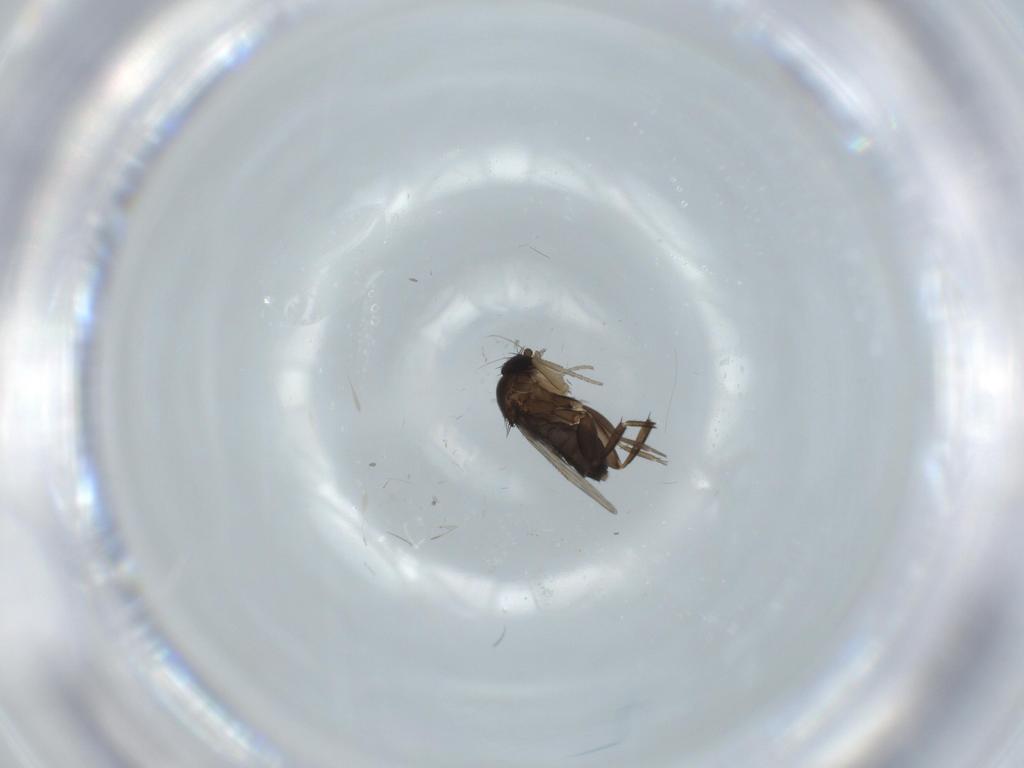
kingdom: Animalia
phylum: Arthropoda
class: Insecta
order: Diptera
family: Phoridae
